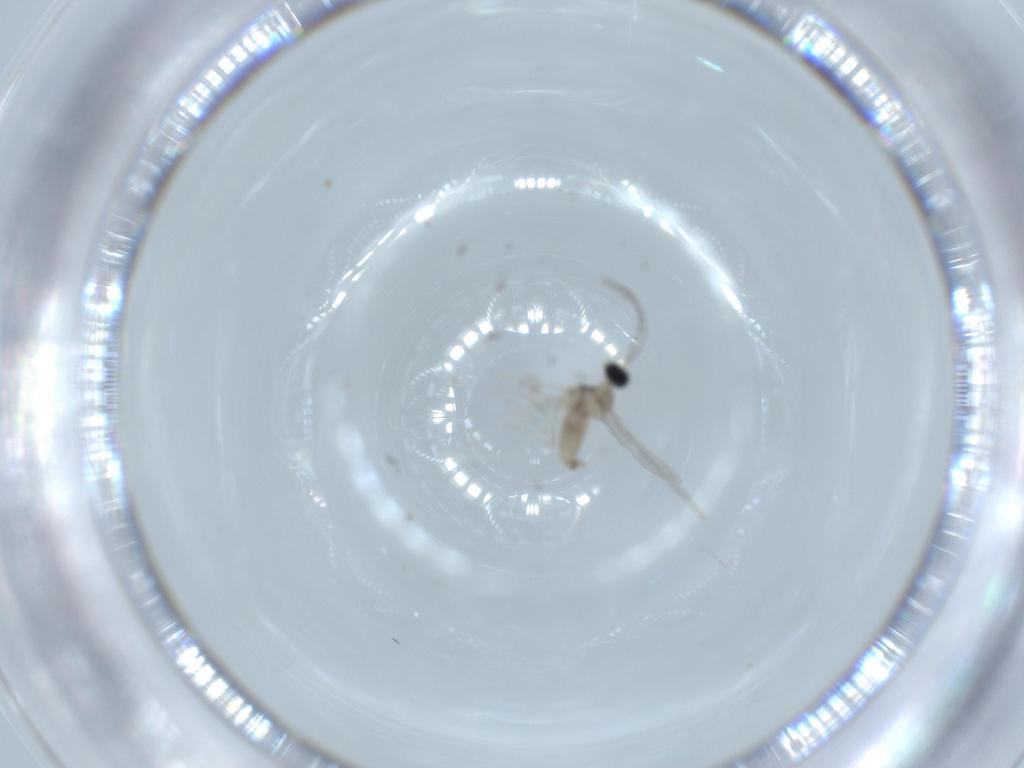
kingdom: Animalia
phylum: Arthropoda
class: Insecta
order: Diptera
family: Cecidomyiidae
